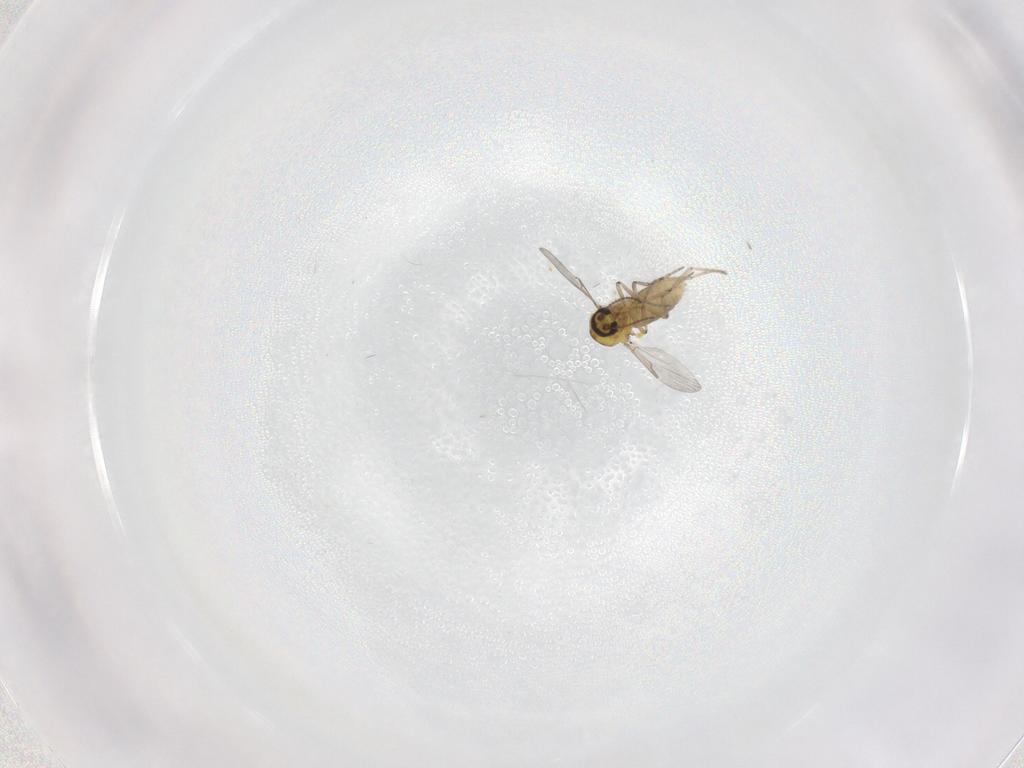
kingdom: Animalia
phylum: Arthropoda
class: Insecta
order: Diptera
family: Ceratopogonidae
